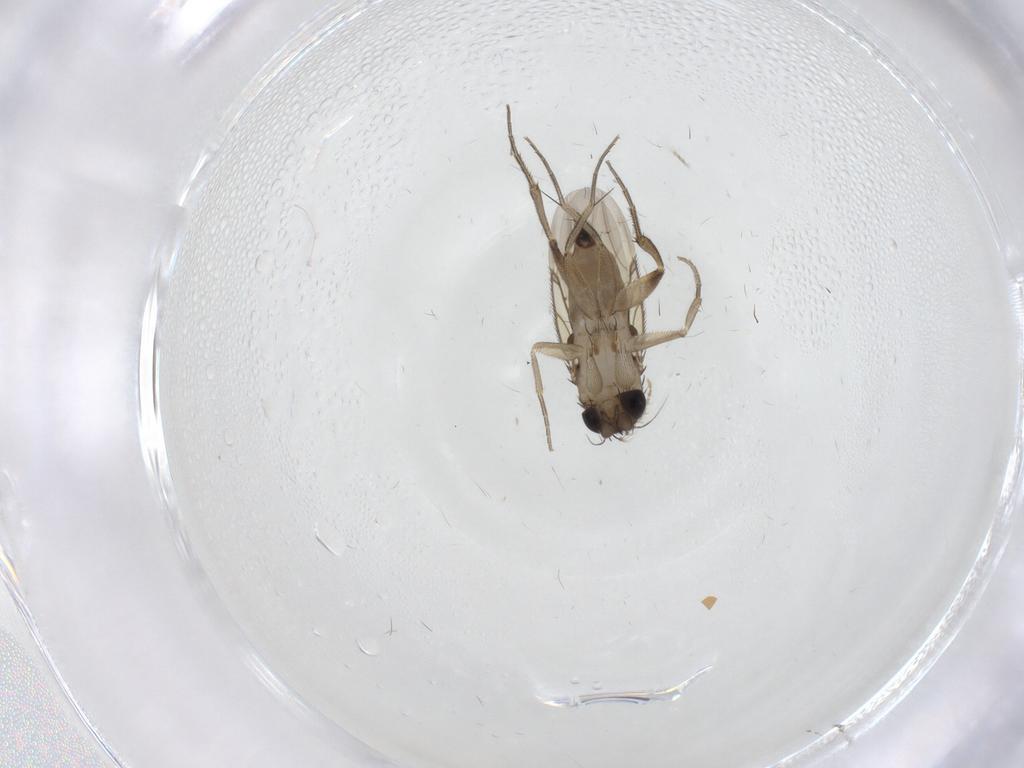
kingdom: Animalia
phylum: Arthropoda
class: Insecta
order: Diptera
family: Phoridae
